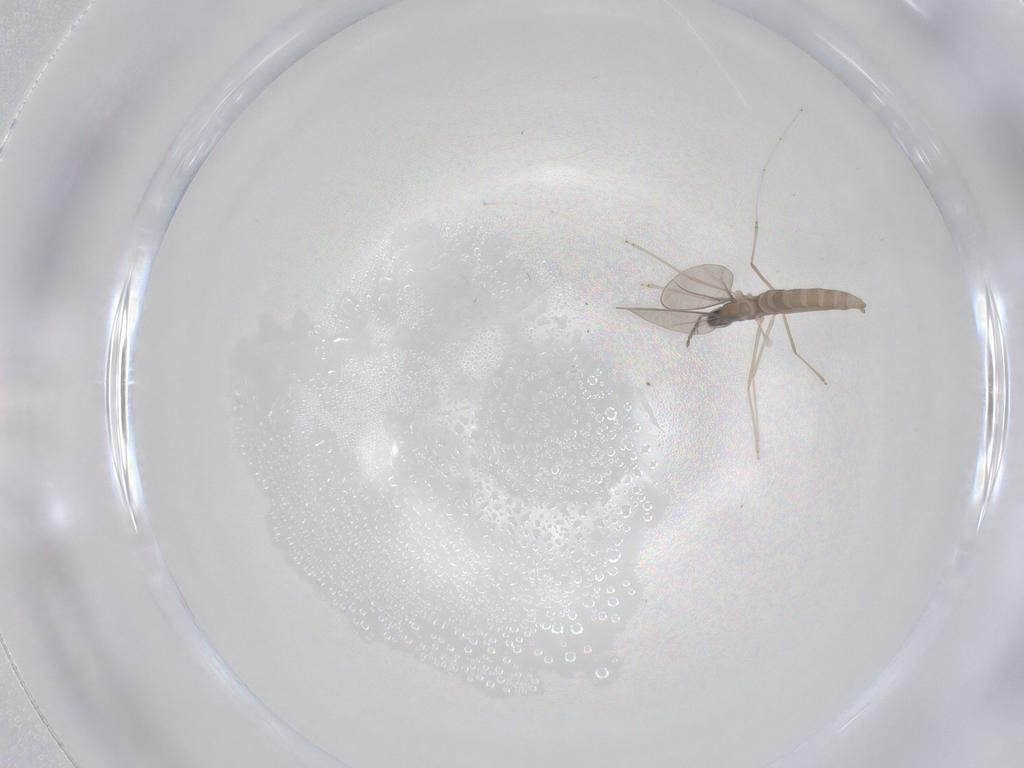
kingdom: Animalia
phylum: Arthropoda
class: Insecta
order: Diptera
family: Cecidomyiidae
